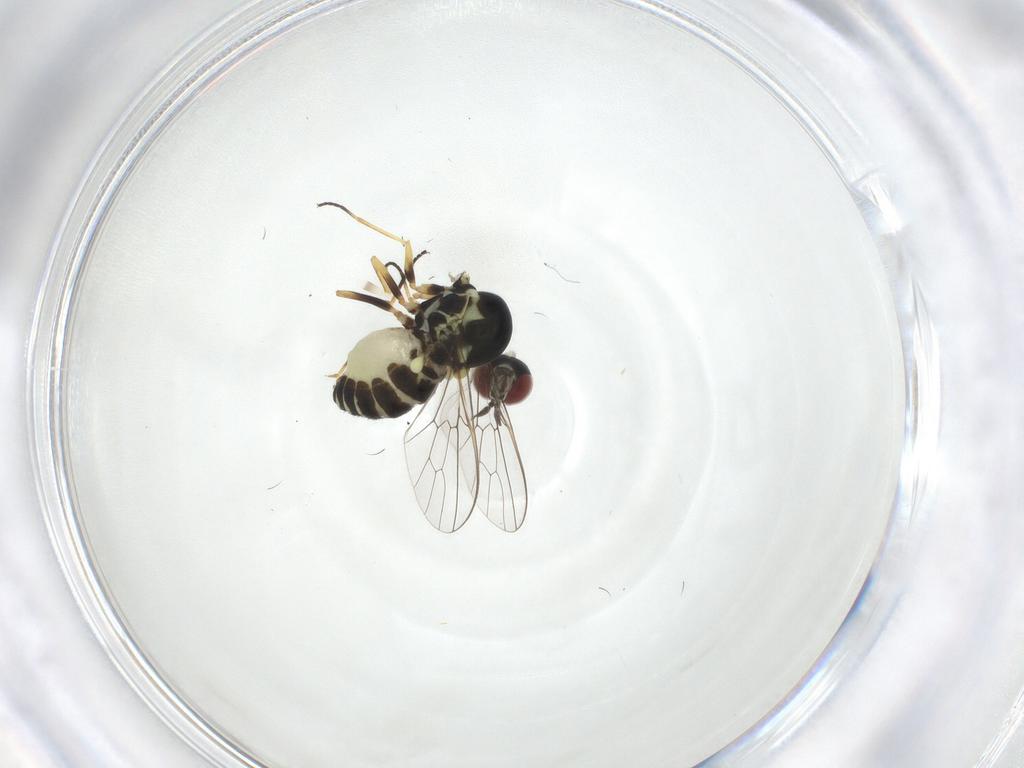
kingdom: Animalia
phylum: Arthropoda
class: Insecta
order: Diptera
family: Bombyliidae
